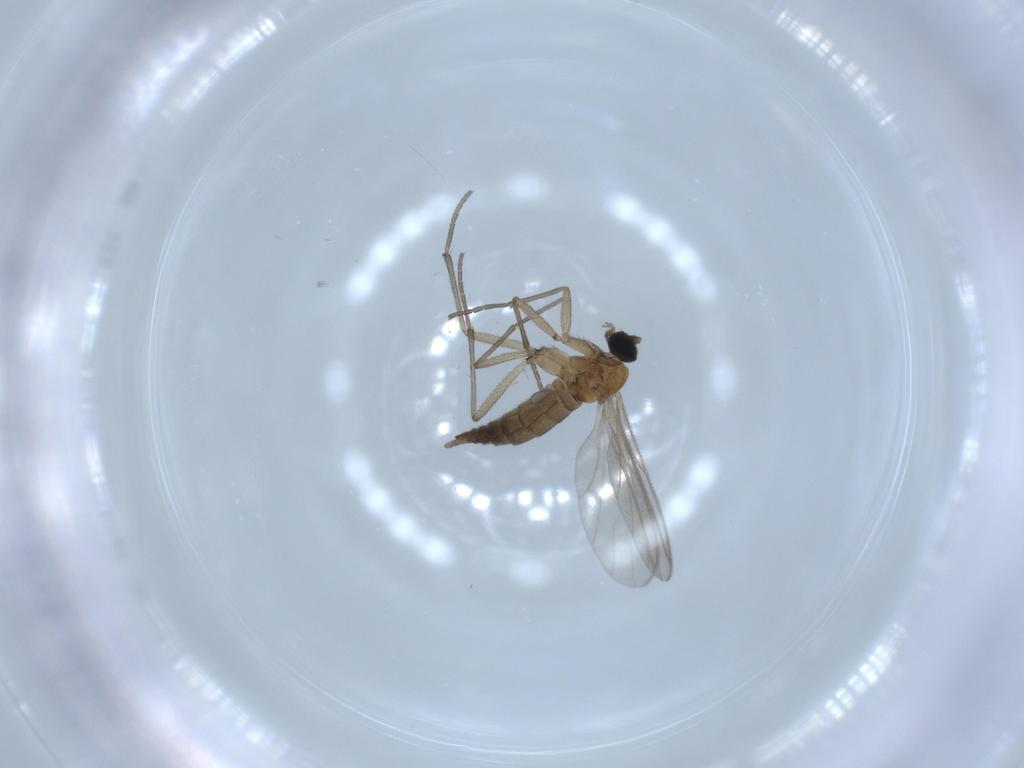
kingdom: Animalia
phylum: Arthropoda
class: Insecta
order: Diptera
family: Sciaridae
